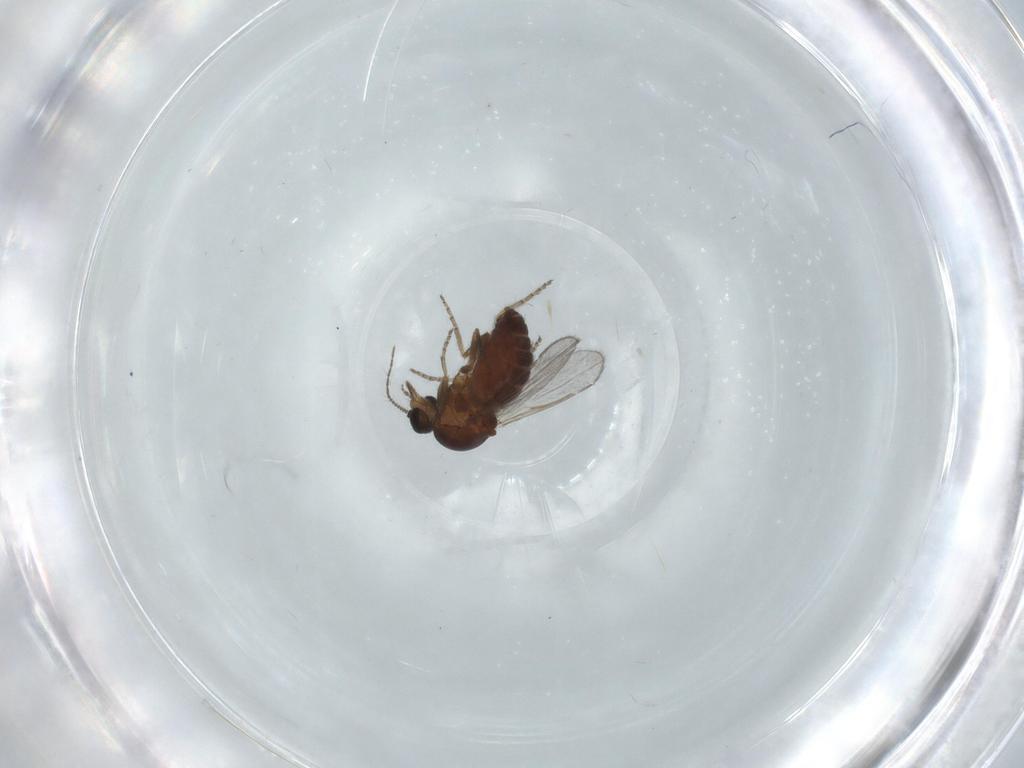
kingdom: Animalia
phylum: Arthropoda
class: Insecta
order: Diptera
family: Ceratopogonidae
